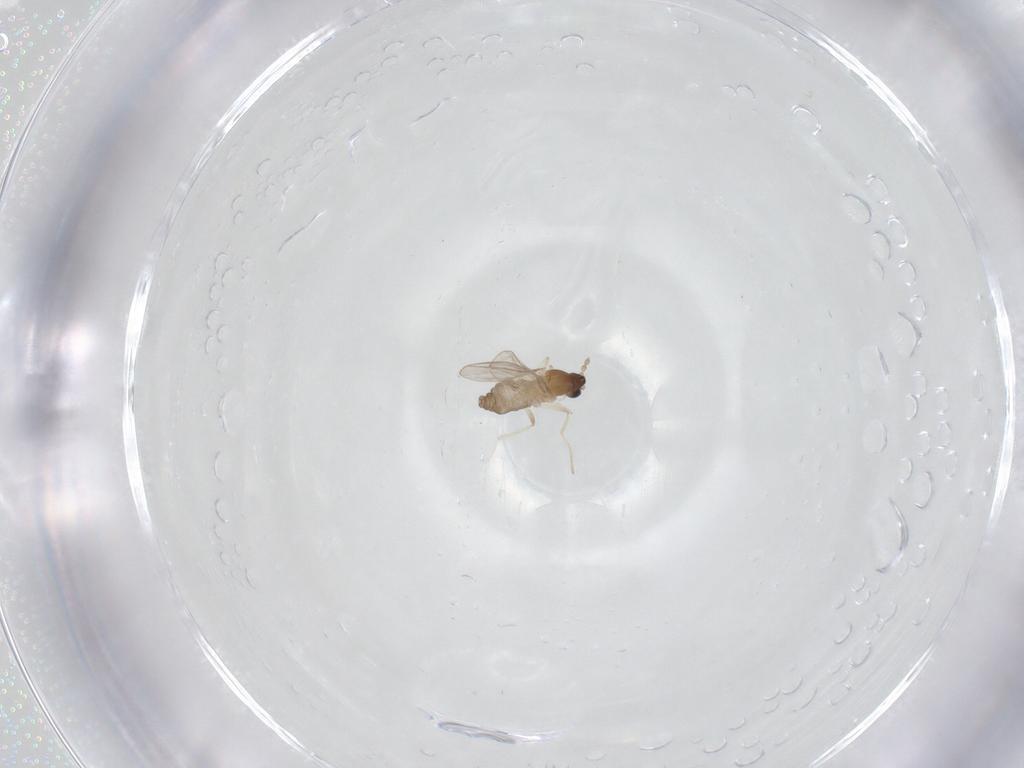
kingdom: Animalia
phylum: Arthropoda
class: Insecta
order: Diptera
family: Cecidomyiidae
